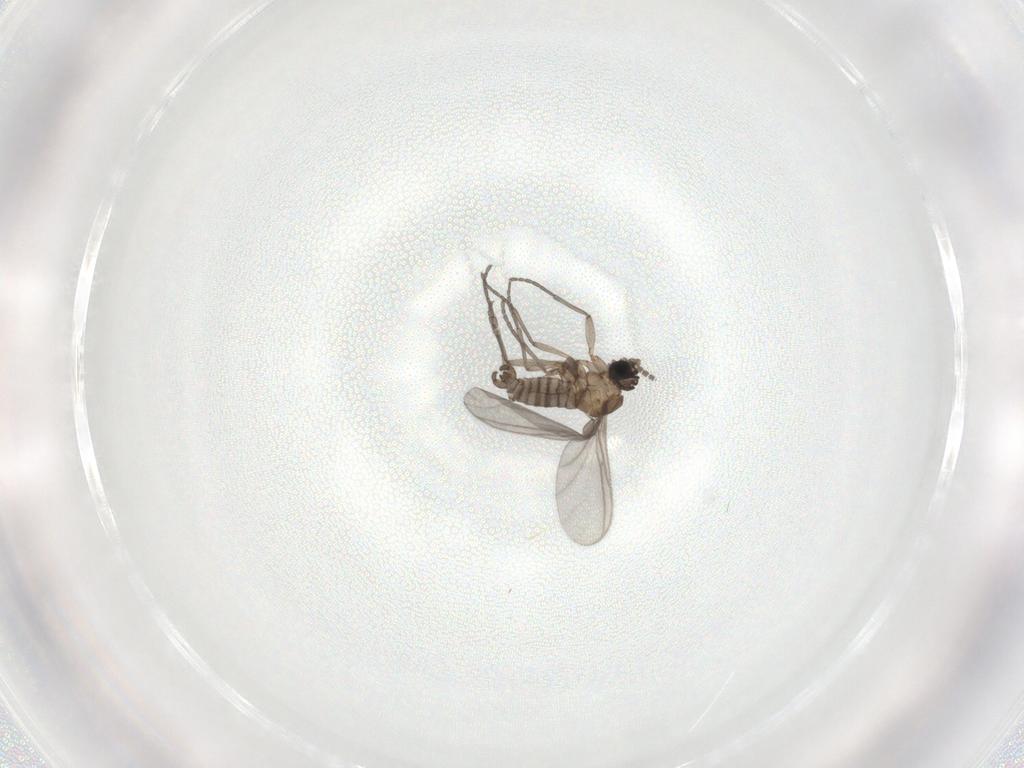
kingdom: Animalia
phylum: Arthropoda
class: Insecta
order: Diptera
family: Sciaridae
